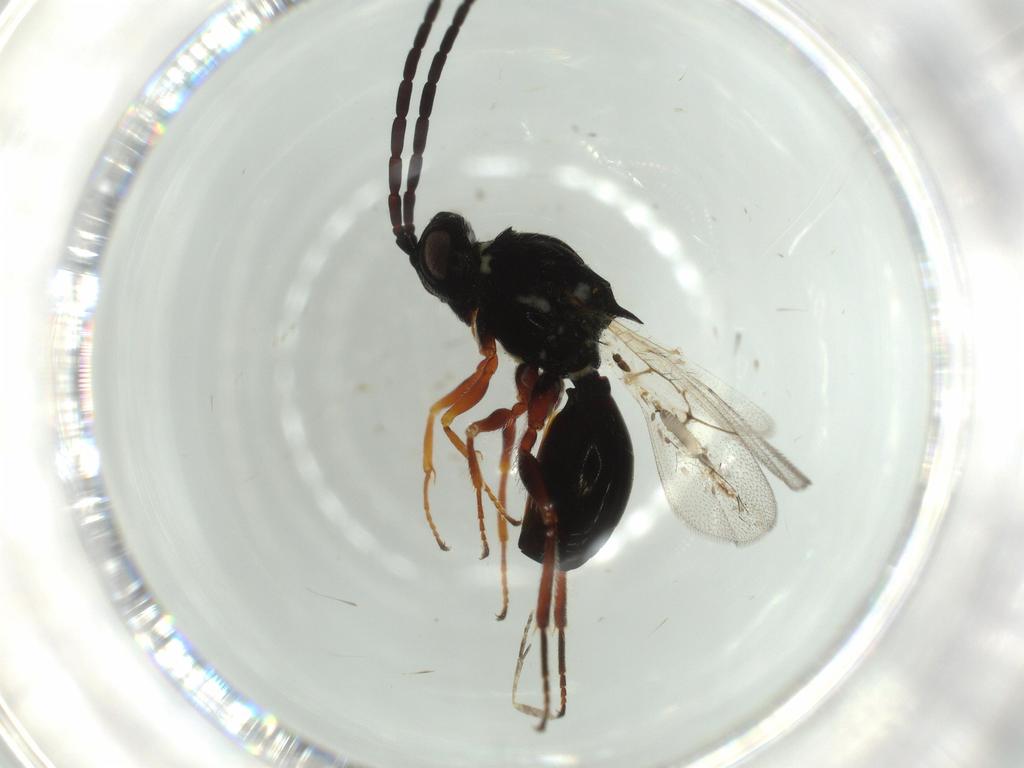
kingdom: Animalia
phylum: Arthropoda
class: Insecta
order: Hymenoptera
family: Figitidae
